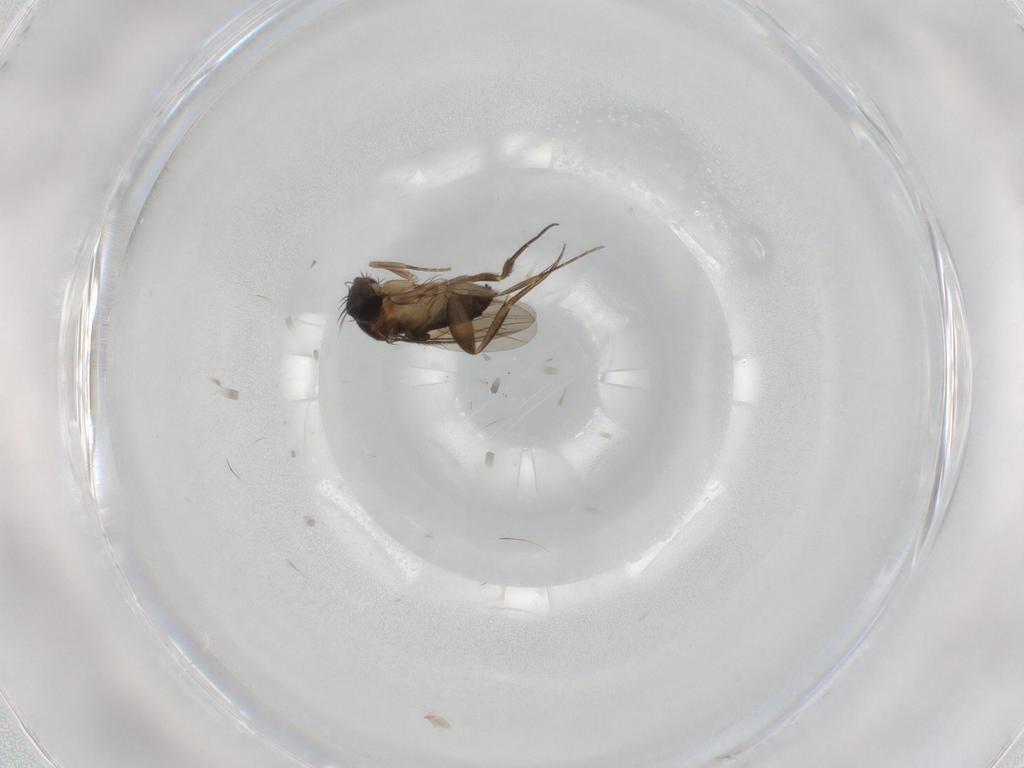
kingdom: Animalia
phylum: Arthropoda
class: Insecta
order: Diptera
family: Phoridae
